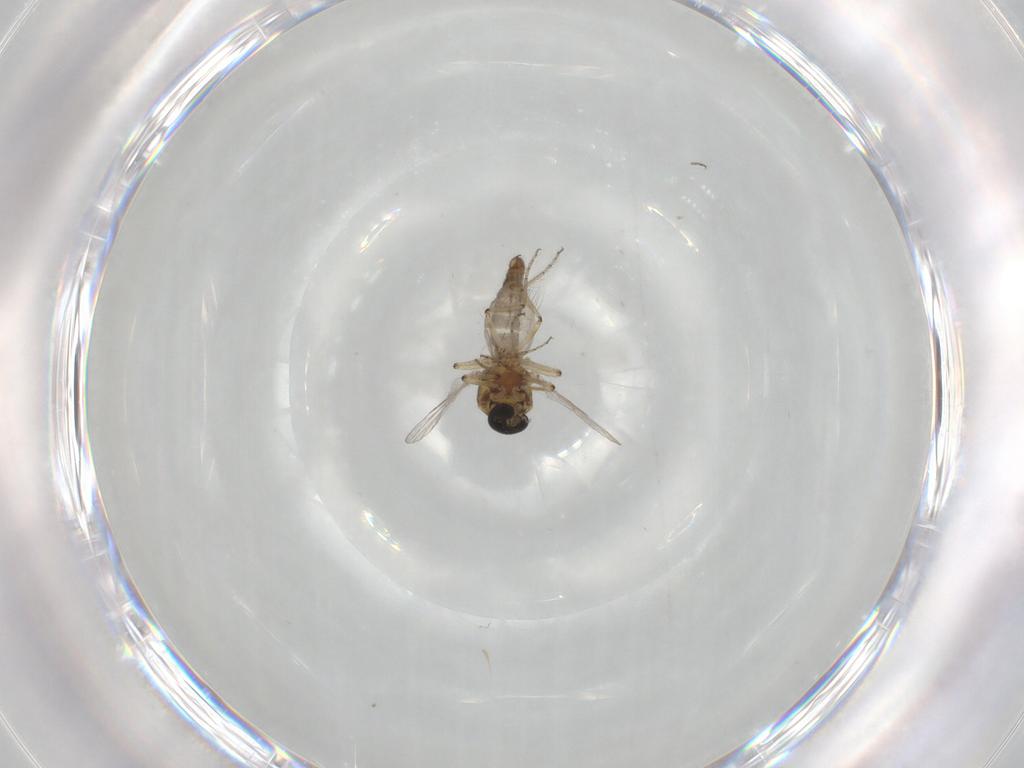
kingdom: Animalia
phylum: Arthropoda
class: Insecta
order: Diptera
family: Ceratopogonidae
